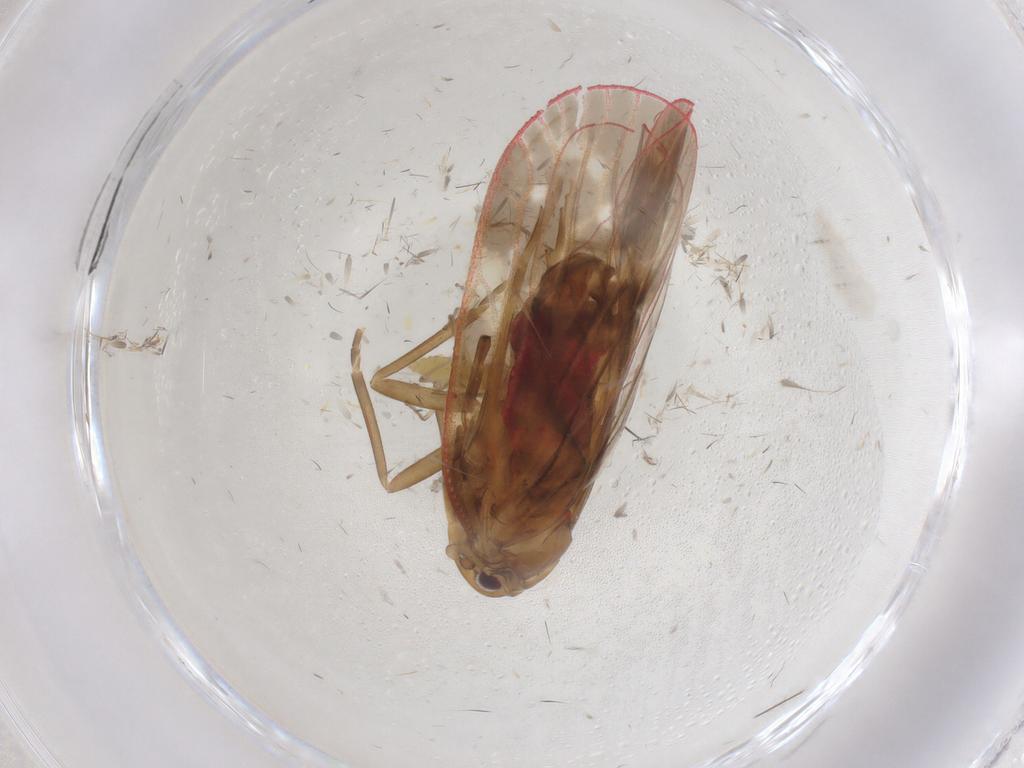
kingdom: Animalia
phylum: Arthropoda
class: Insecta
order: Hemiptera
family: Achilidae
